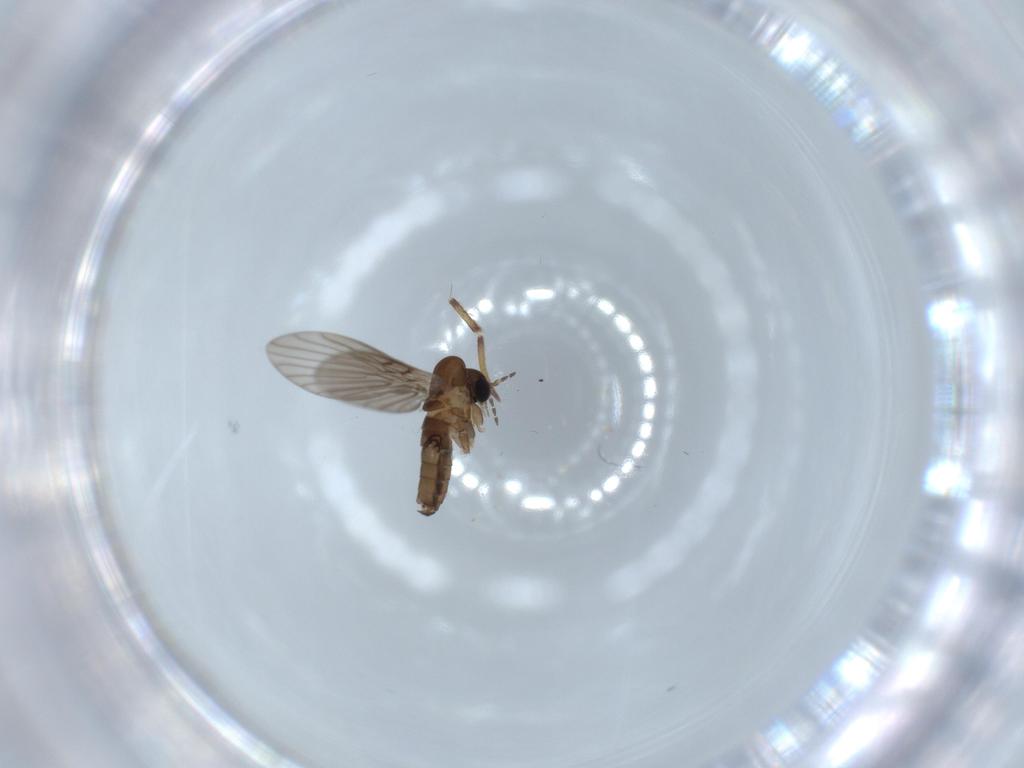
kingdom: Animalia
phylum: Arthropoda
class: Insecta
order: Diptera
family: Psychodidae
